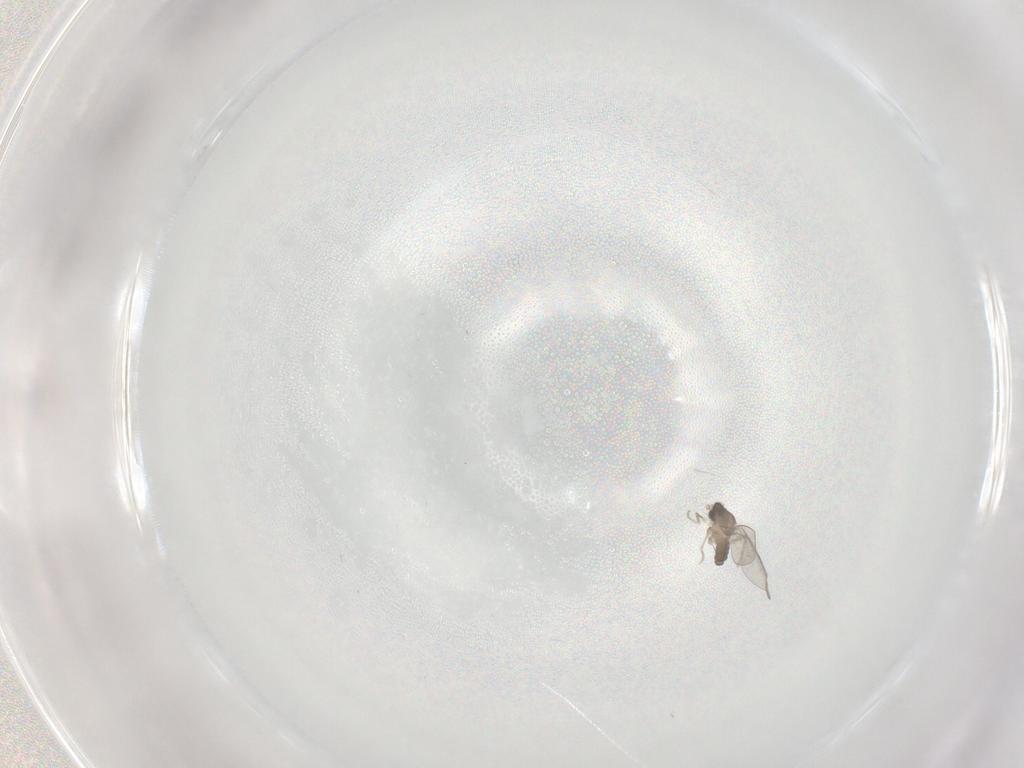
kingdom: Animalia
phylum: Arthropoda
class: Insecta
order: Diptera
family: Cecidomyiidae
